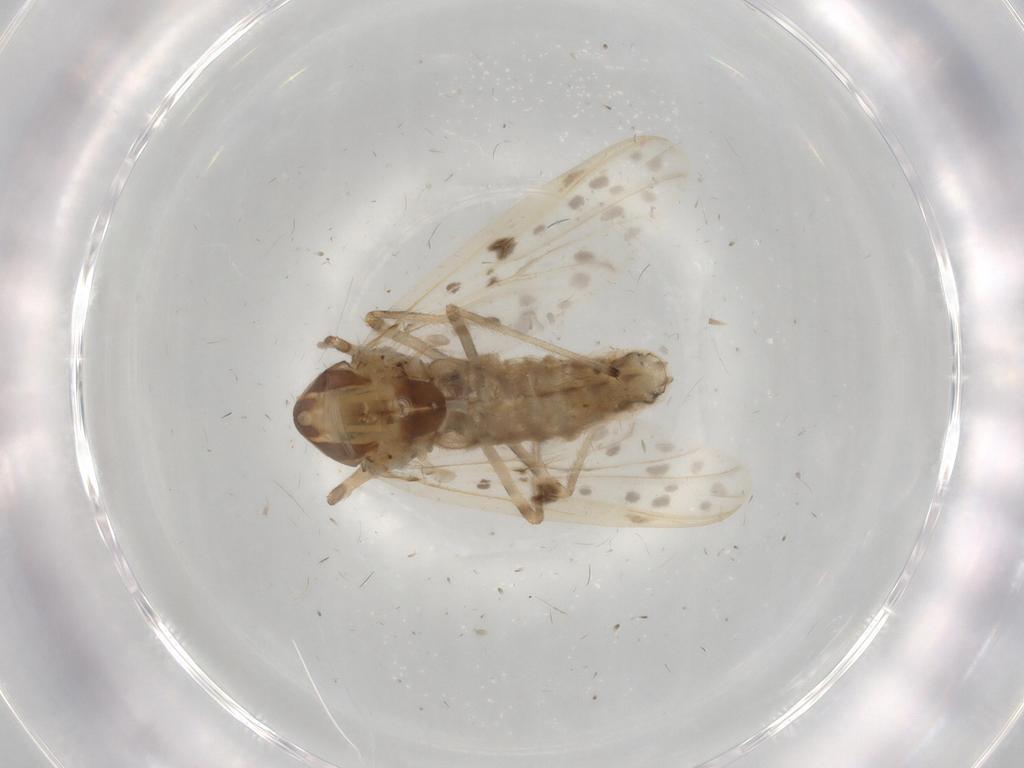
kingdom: Animalia
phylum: Arthropoda
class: Insecta
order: Diptera
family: Chironomidae
